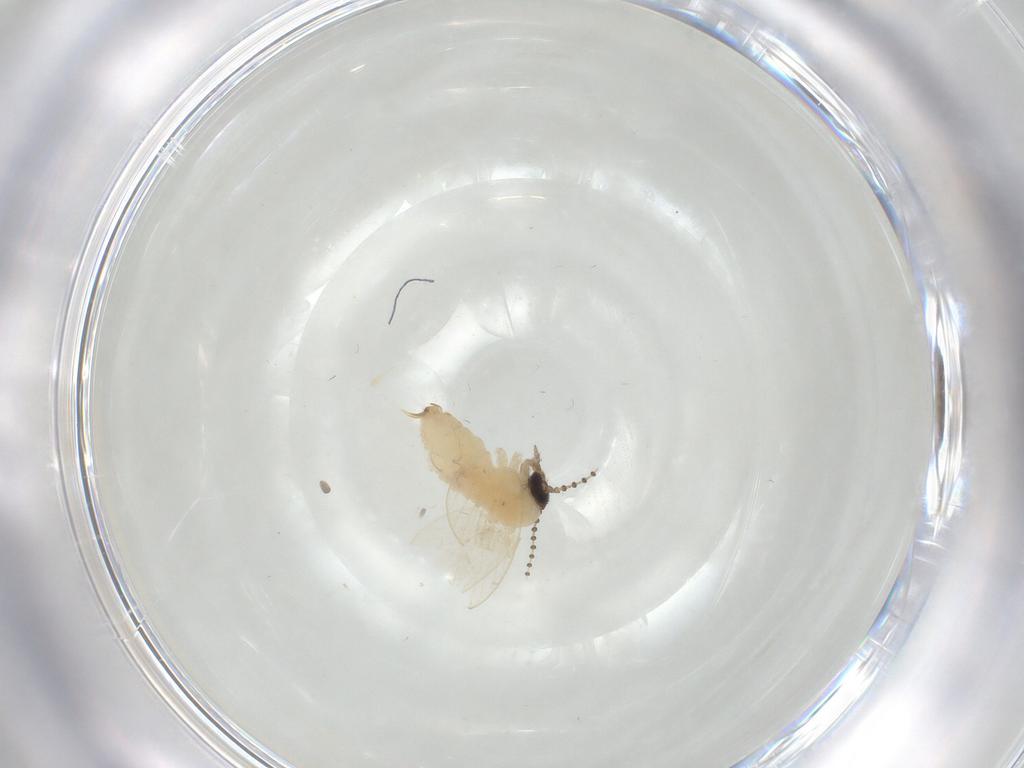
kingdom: Animalia
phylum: Arthropoda
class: Insecta
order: Diptera
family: Psychodidae
